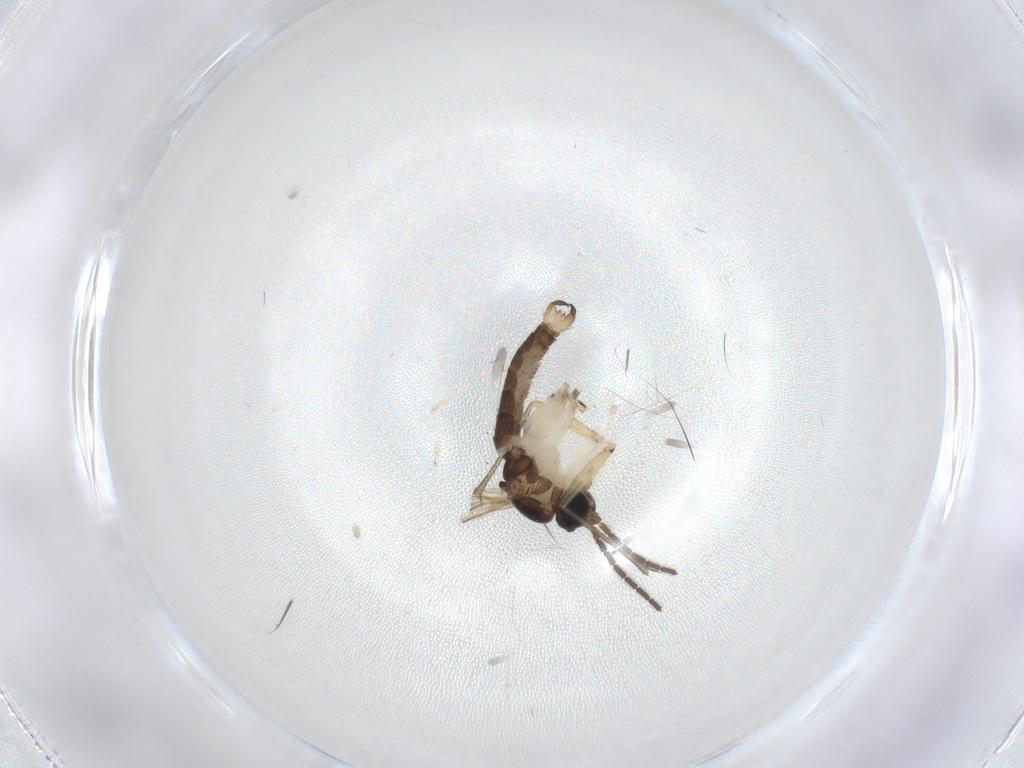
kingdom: Animalia
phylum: Arthropoda
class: Insecta
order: Diptera
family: Sciaridae
